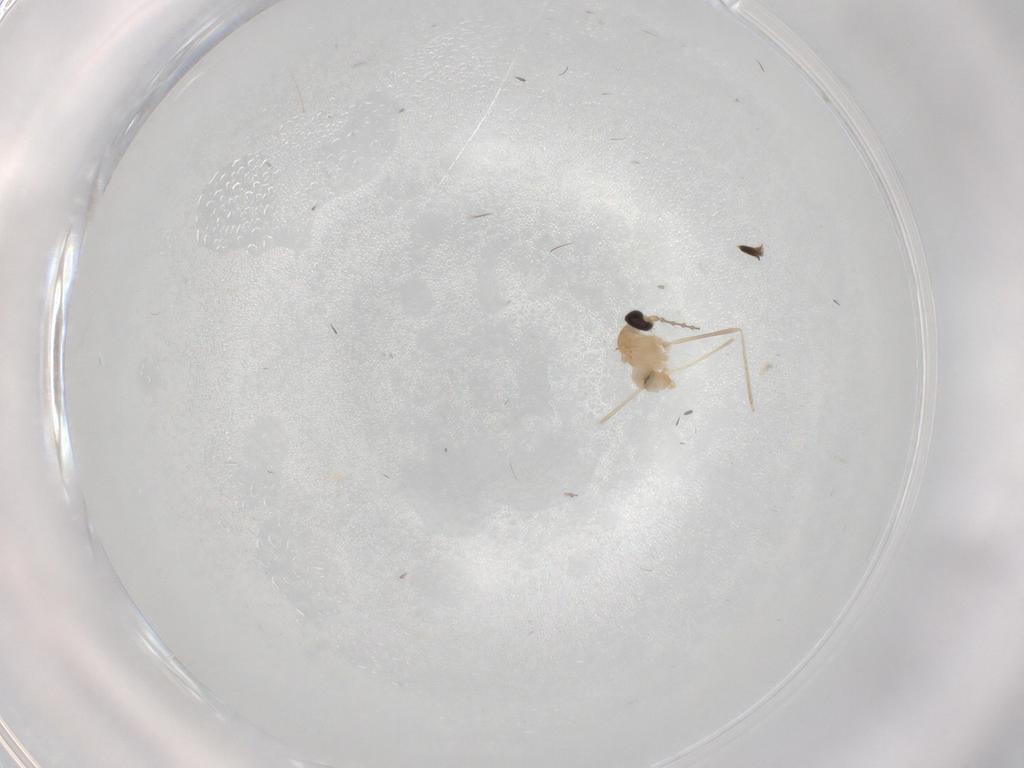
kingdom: Animalia
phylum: Arthropoda
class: Insecta
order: Diptera
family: Cecidomyiidae
